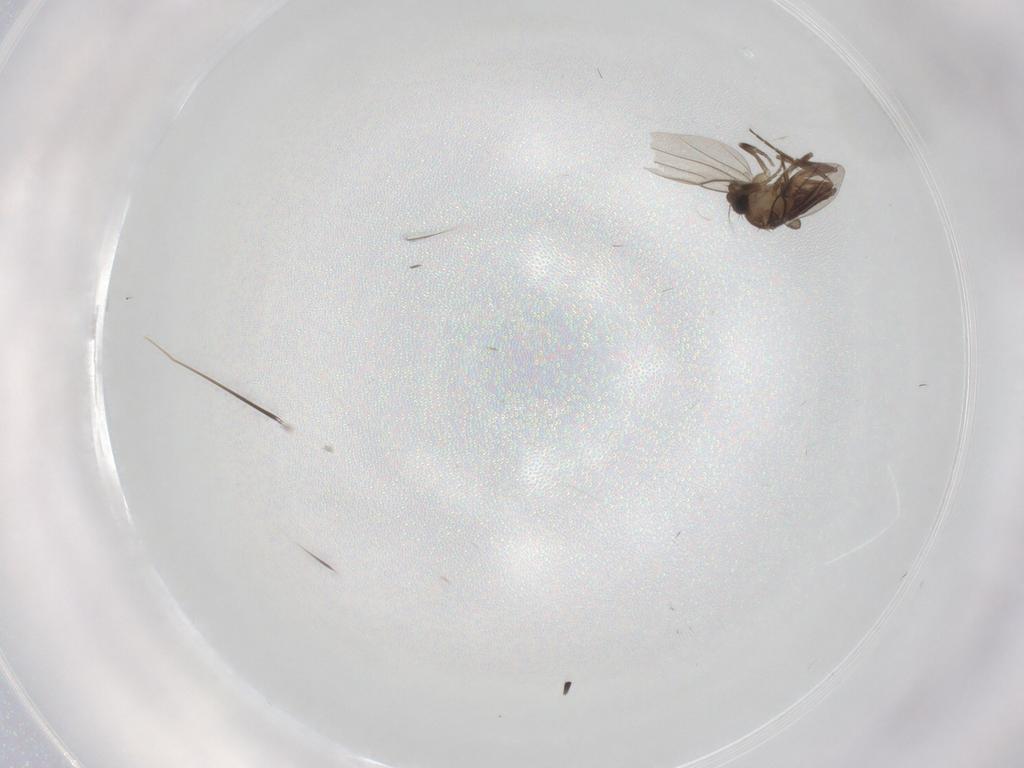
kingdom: Animalia
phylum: Arthropoda
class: Insecta
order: Diptera
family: Phoridae
